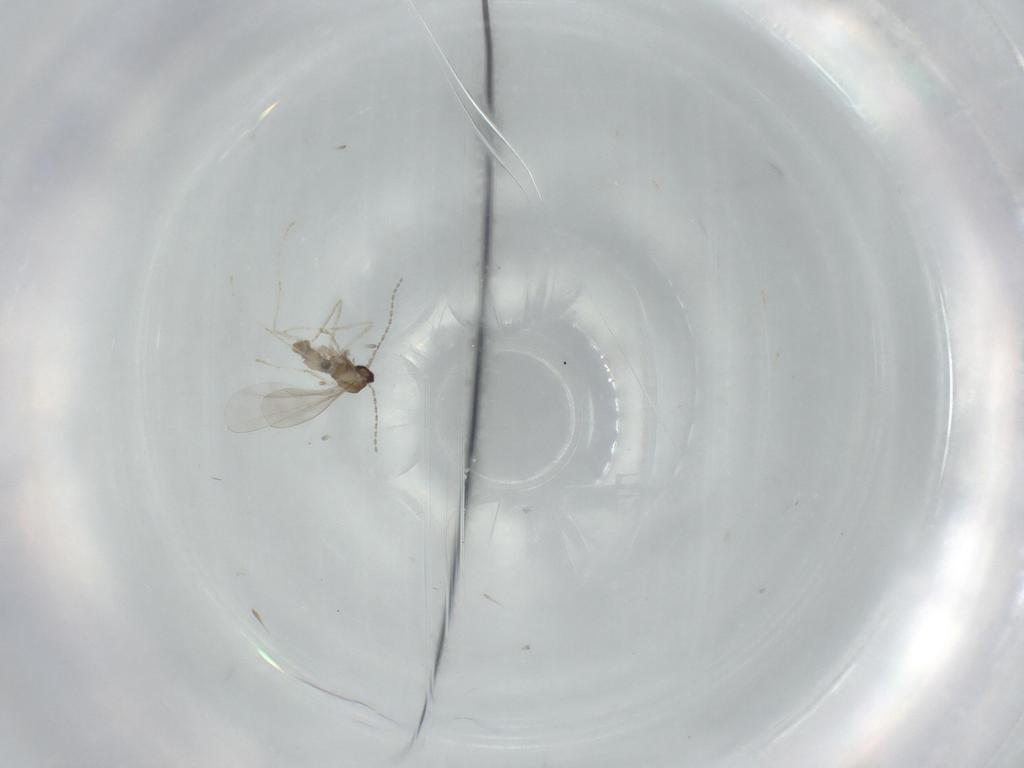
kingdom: Animalia
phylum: Arthropoda
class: Insecta
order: Diptera
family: Cecidomyiidae
